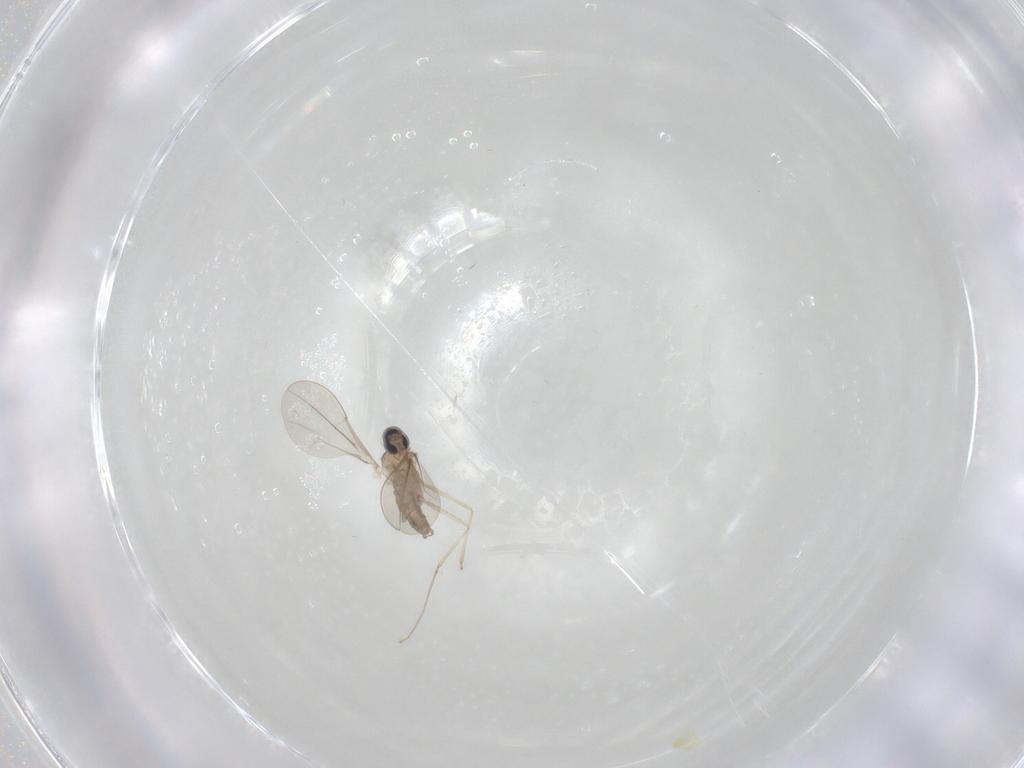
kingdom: Animalia
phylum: Arthropoda
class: Insecta
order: Diptera
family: Cecidomyiidae
